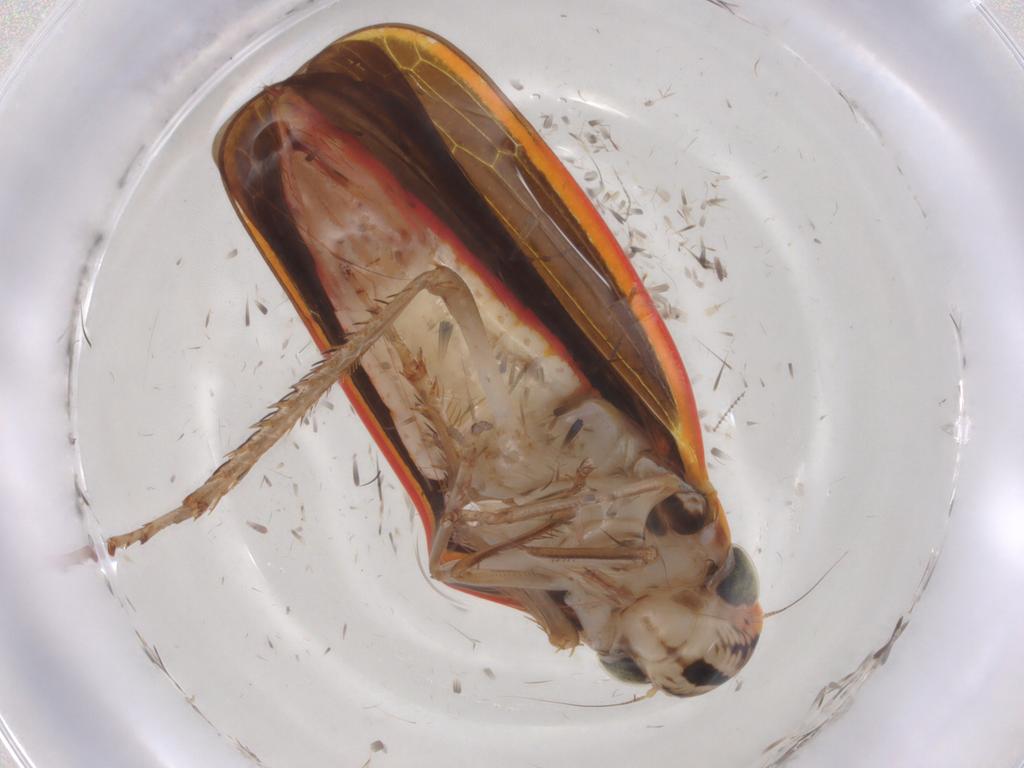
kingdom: Animalia
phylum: Arthropoda
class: Insecta
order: Hemiptera
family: Cicadellidae
